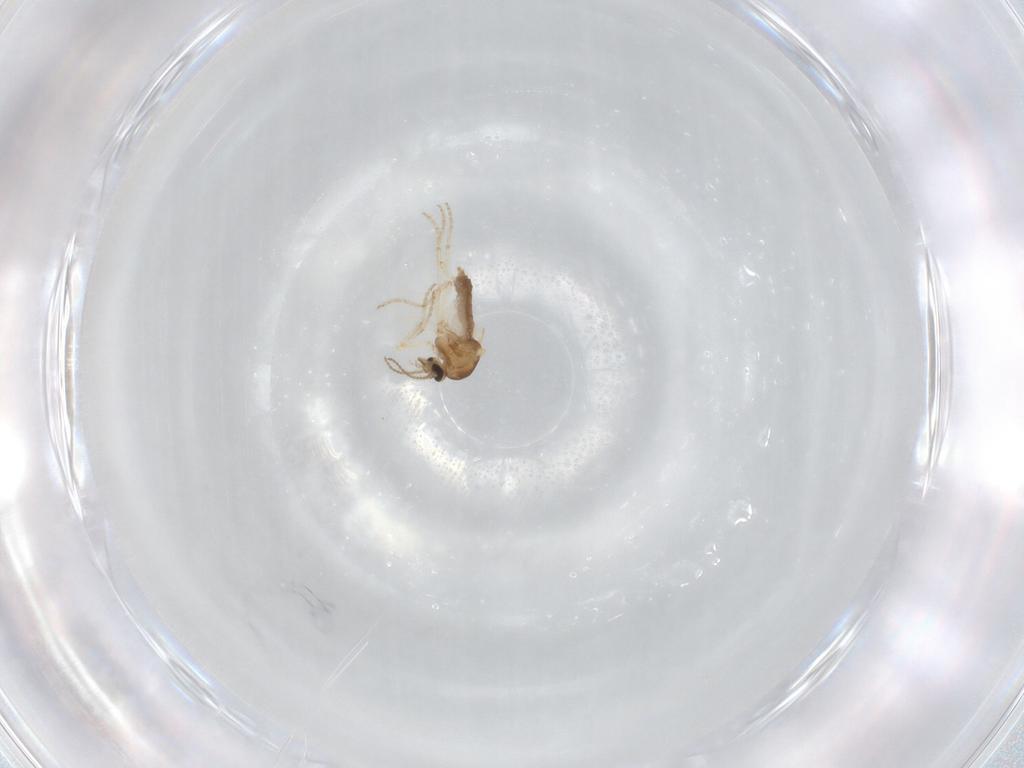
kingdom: Animalia
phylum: Arthropoda
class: Insecta
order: Diptera
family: Ceratopogonidae
